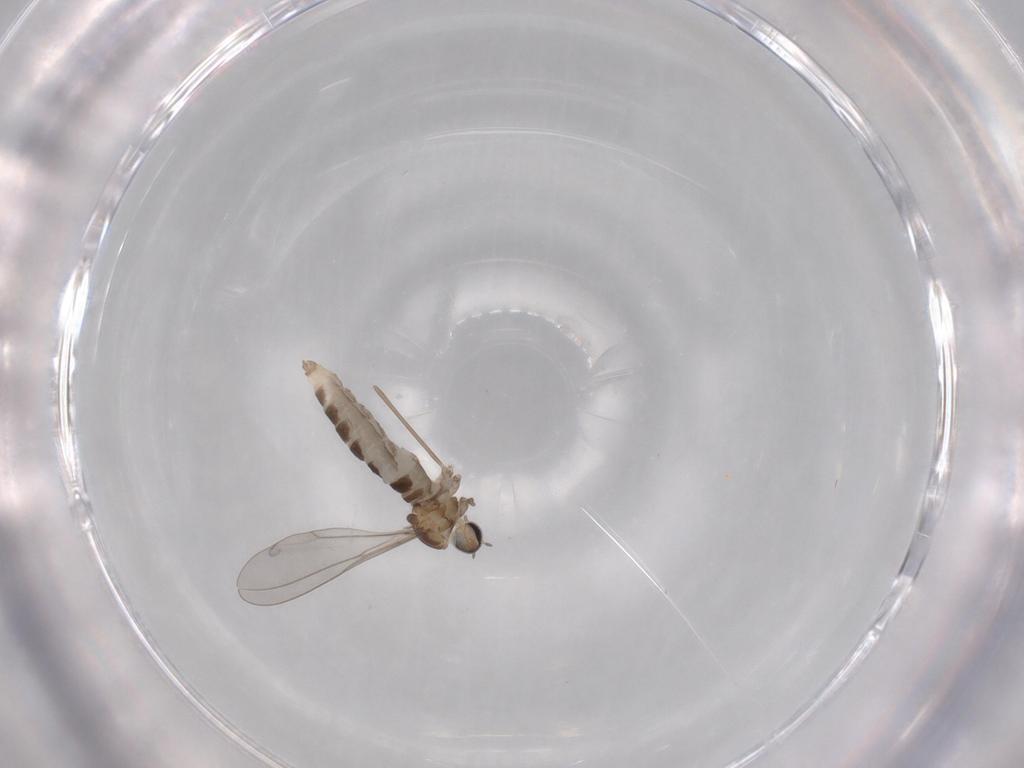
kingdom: Animalia
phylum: Arthropoda
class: Insecta
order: Diptera
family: Cecidomyiidae
